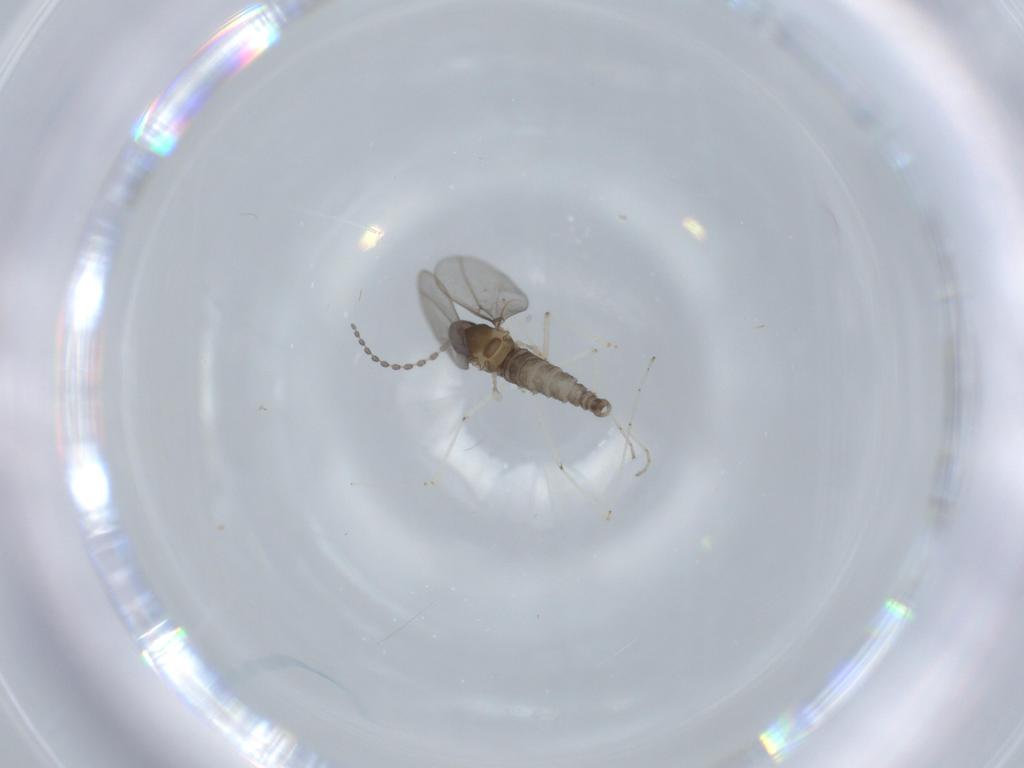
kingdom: Animalia
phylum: Arthropoda
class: Insecta
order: Diptera
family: Cecidomyiidae
